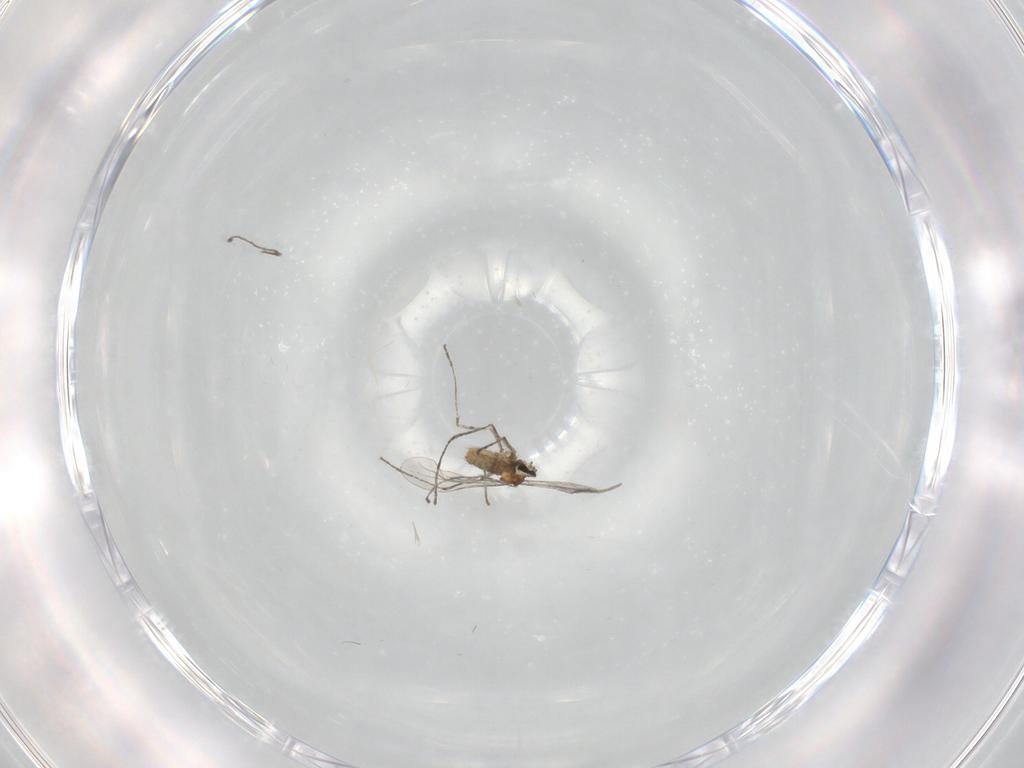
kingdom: Animalia
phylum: Arthropoda
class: Insecta
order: Diptera
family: Cecidomyiidae
